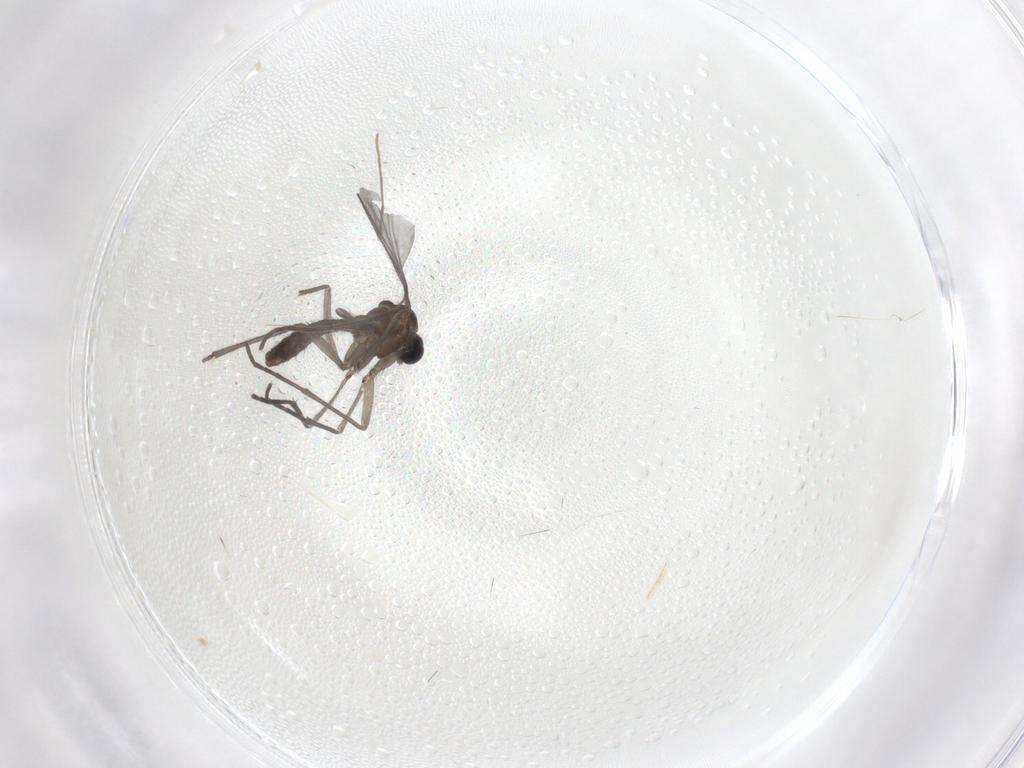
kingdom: Animalia
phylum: Arthropoda
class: Insecta
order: Diptera
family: Sciaridae
